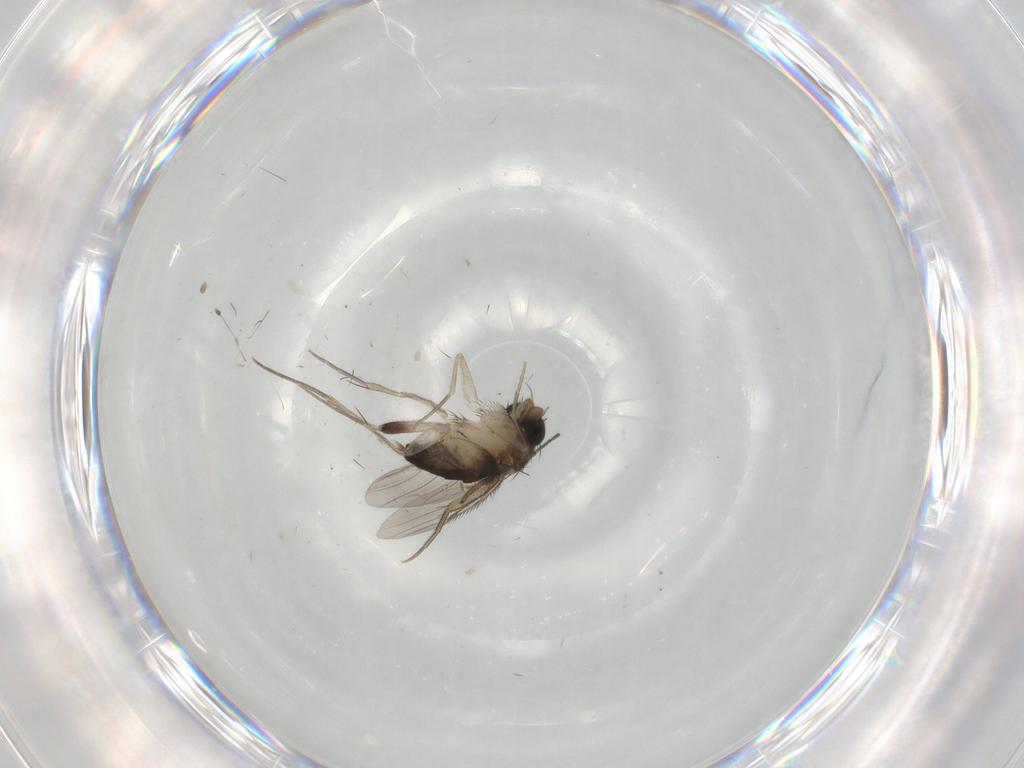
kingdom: Animalia
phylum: Arthropoda
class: Insecta
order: Diptera
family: Phoridae
